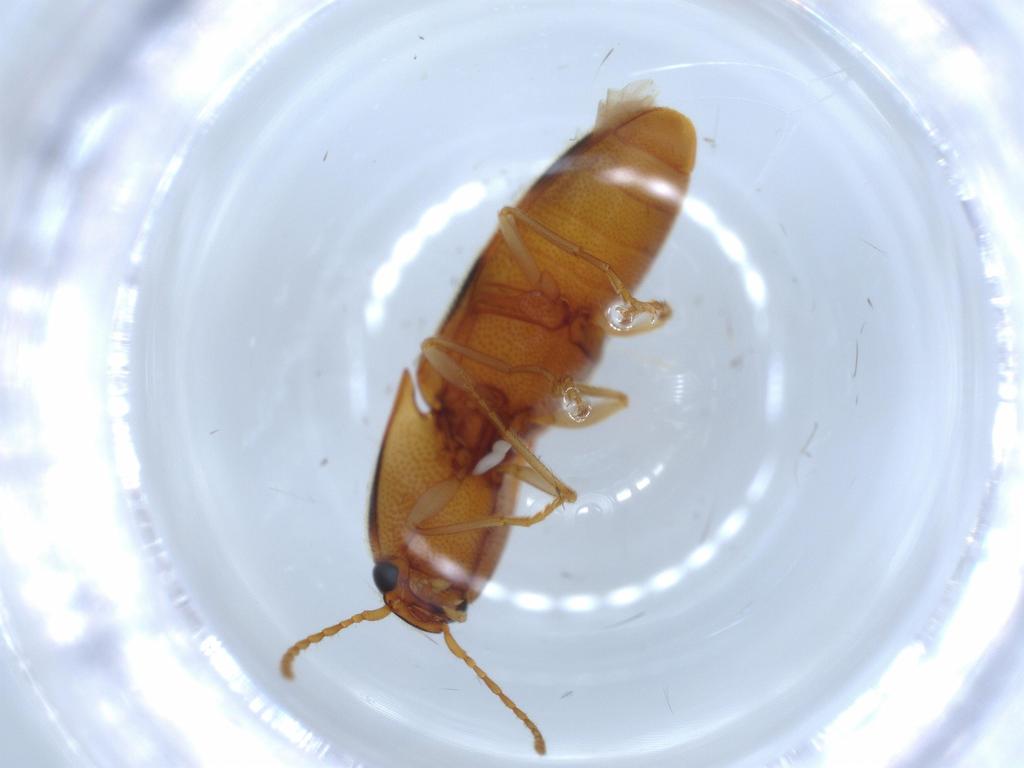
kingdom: Animalia
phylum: Arthropoda
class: Insecta
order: Coleoptera
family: Elateridae
